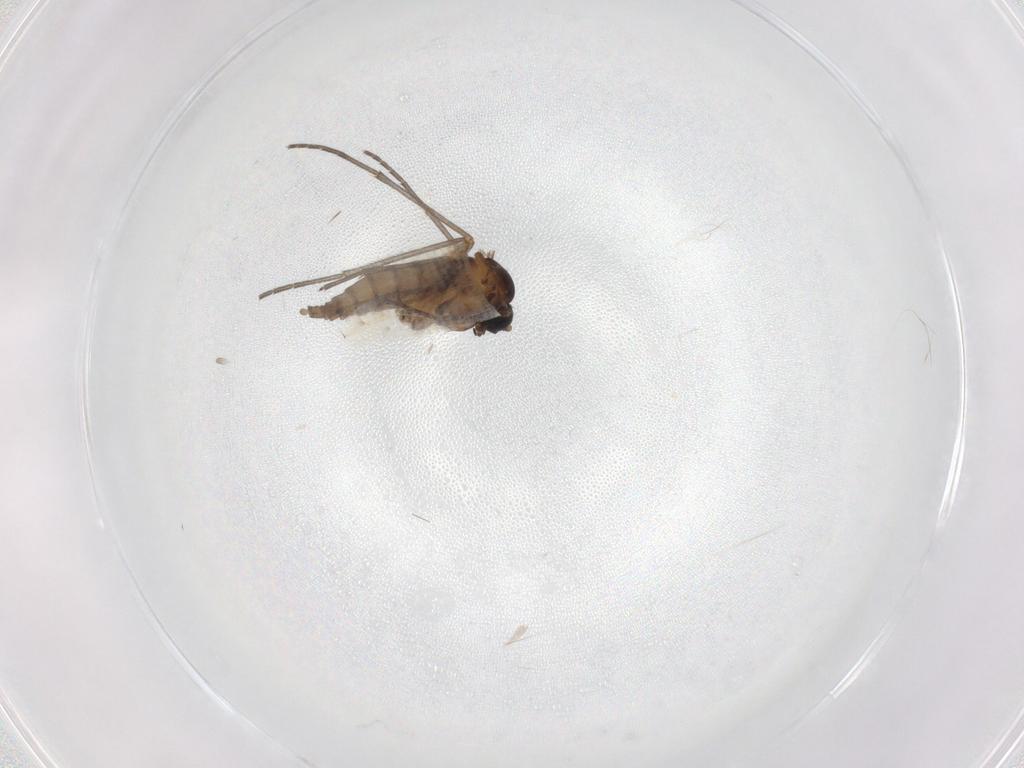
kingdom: Animalia
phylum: Arthropoda
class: Insecta
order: Diptera
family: Sciaridae
